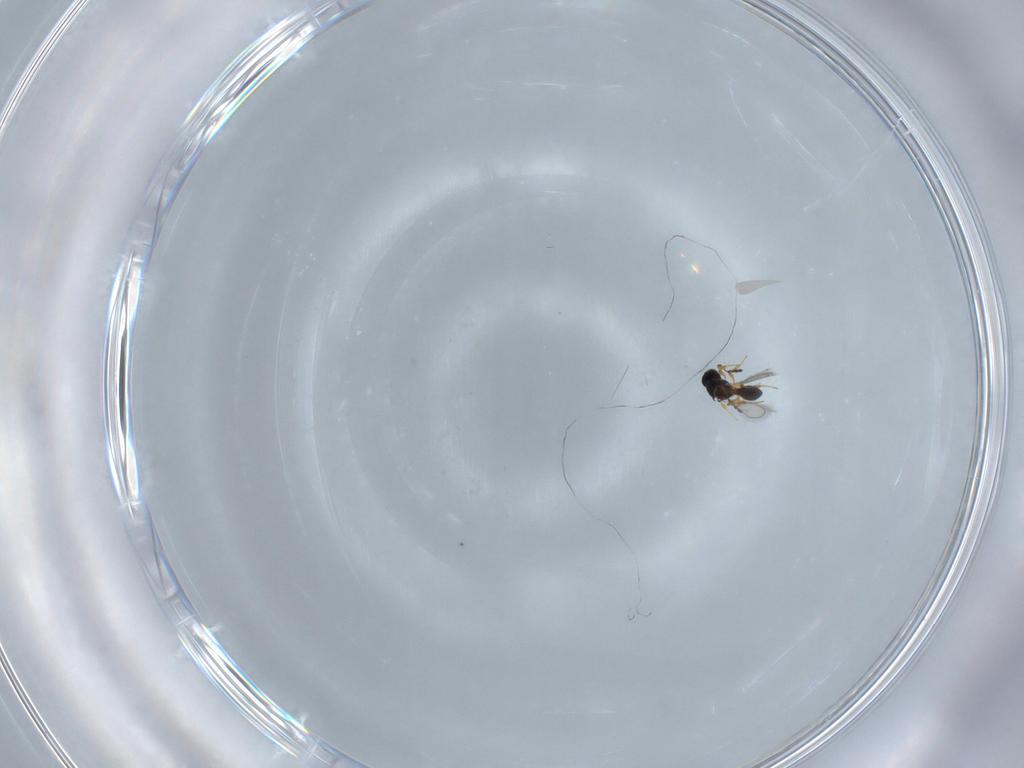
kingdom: Animalia
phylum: Arthropoda
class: Insecta
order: Hymenoptera
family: Platygastridae
